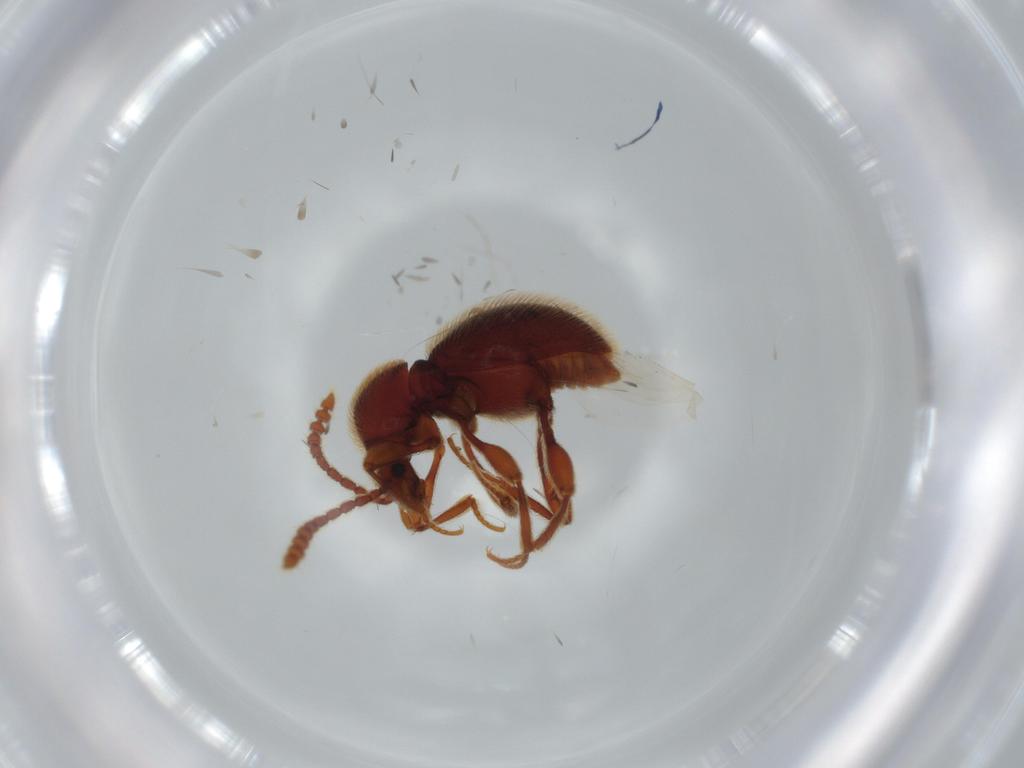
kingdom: Animalia
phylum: Arthropoda
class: Insecta
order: Coleoptera
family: Staphylinidae
